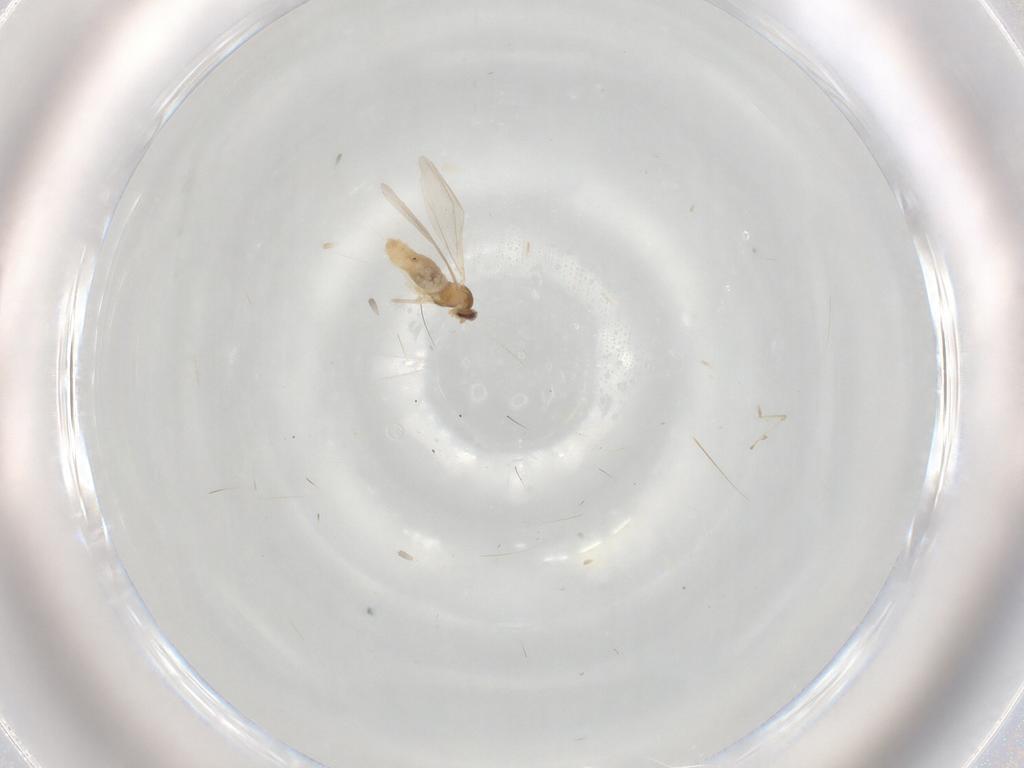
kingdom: Animalia
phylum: Arthropoda
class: Insecta
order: Diptera
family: Cecidomyiidae
